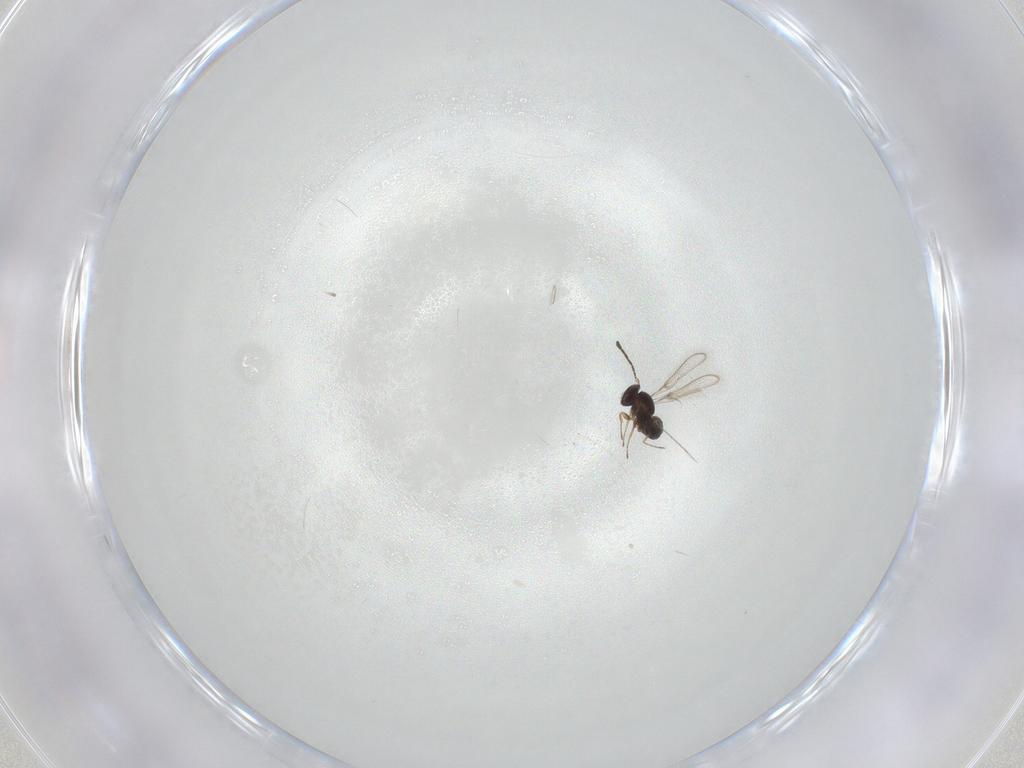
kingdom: Animalia
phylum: Arthropoda
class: Insecta
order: Hymenoptera
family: Mymaridae
